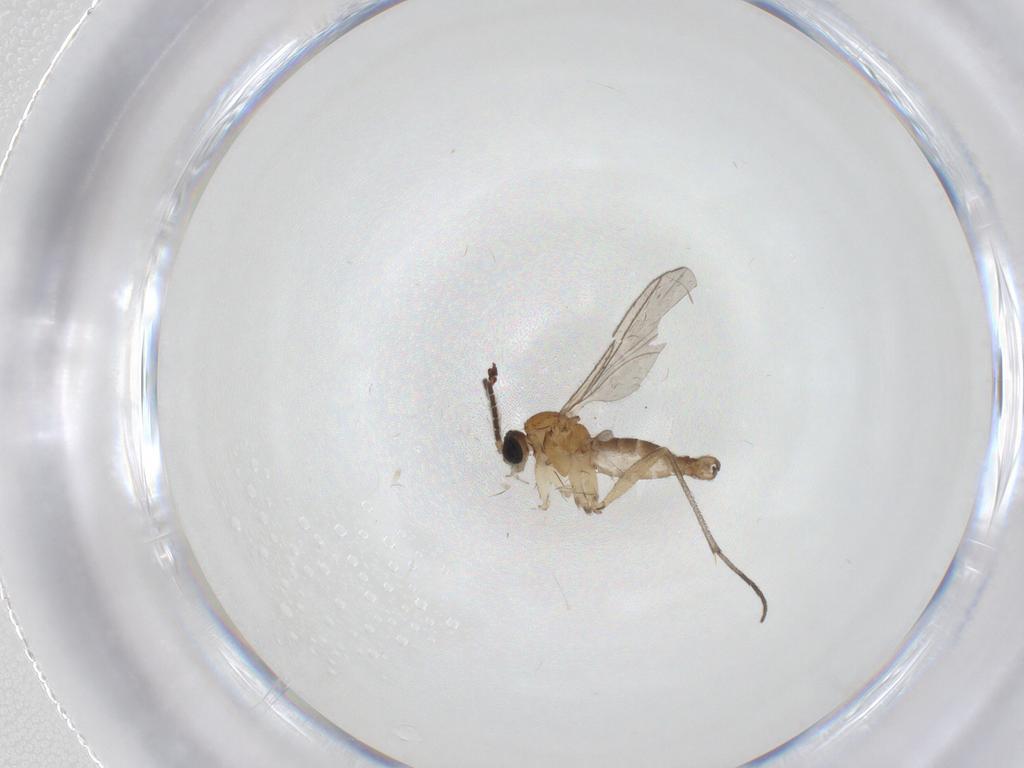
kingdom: Animalia
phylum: Arthropoda
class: Insecta
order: Diptera
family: Sciaridae
